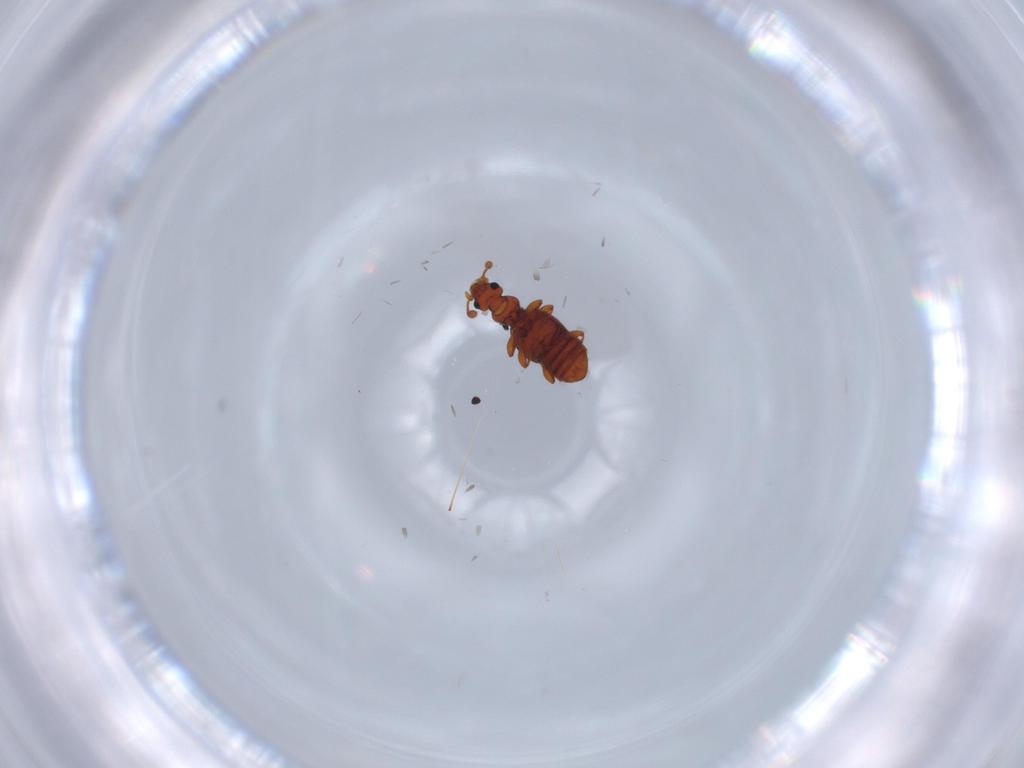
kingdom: Animalia
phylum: Arthropoda
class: Insecta
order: Coleoptera
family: Staphylinidae
